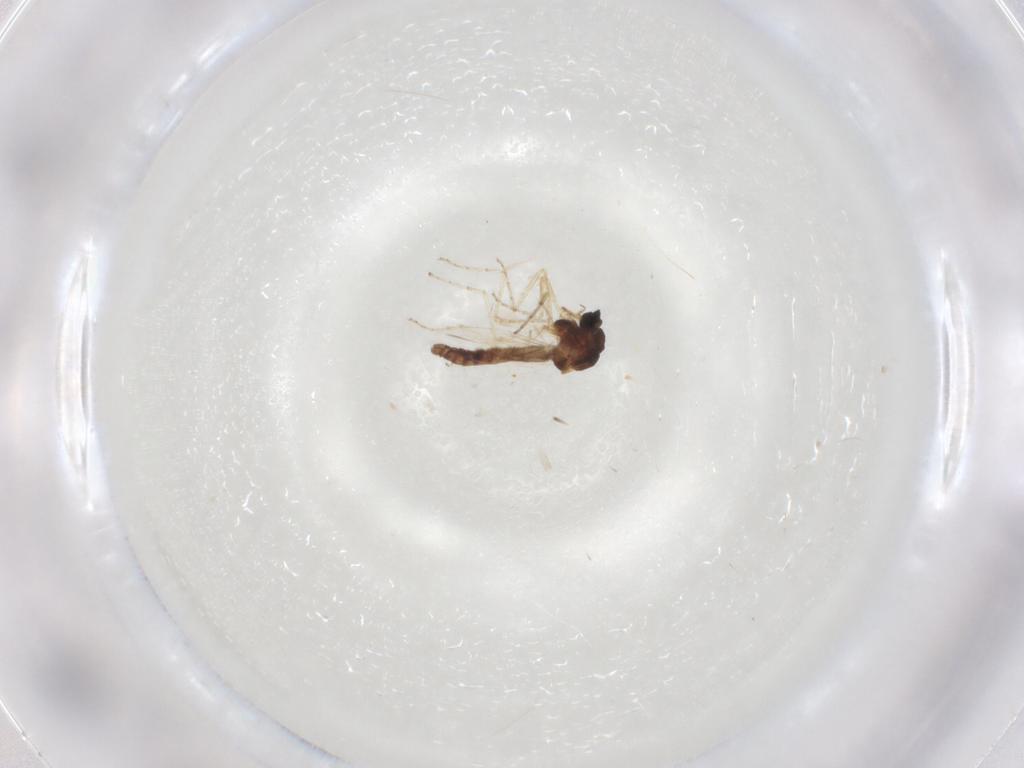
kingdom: Animalia
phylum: Arthropoda
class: Insecta
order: Diptera
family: Ceratopogonidae
